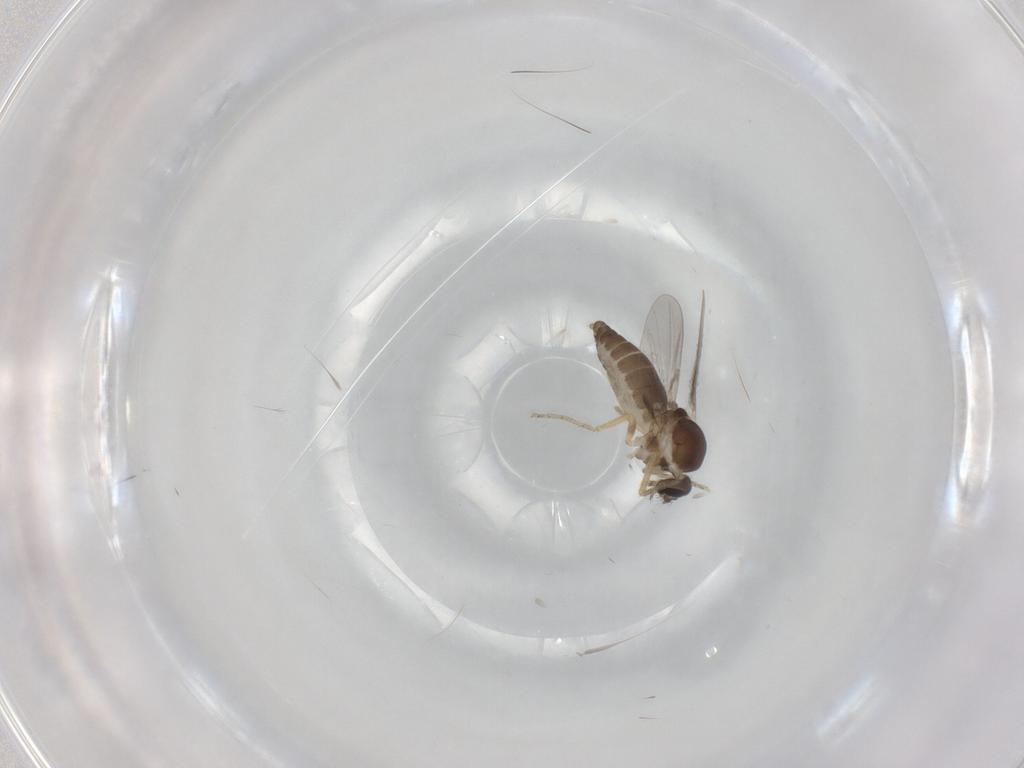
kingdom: Animalia
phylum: Arthropoda
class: Insecta
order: Diptera
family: Ceratopogonidae
